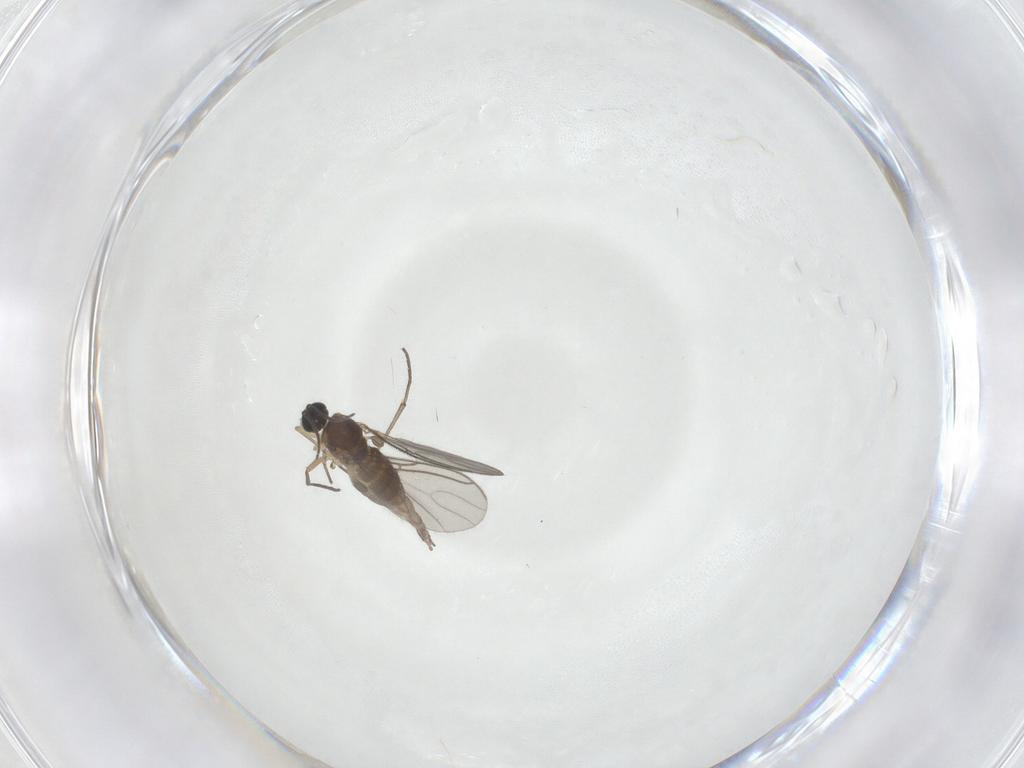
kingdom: Animalia
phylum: Arthropoda
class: Insecta
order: Diptera
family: Sciaridae
